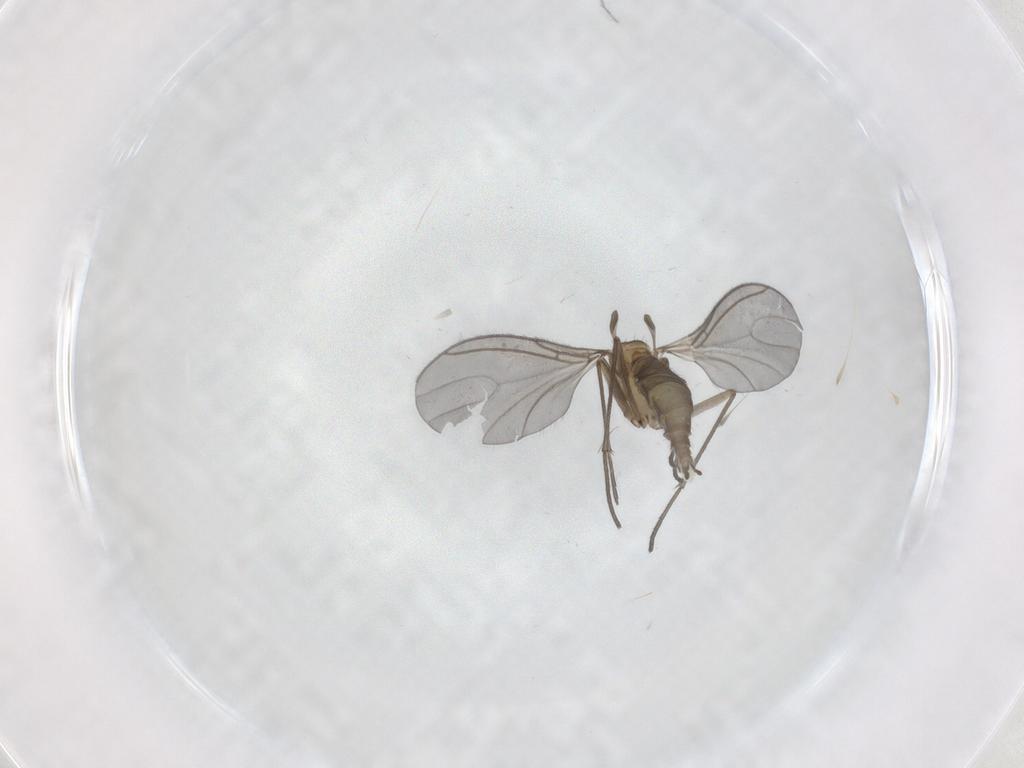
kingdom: Animalia
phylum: Arthropoda
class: Insecta
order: Diptera
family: Sciaridae
